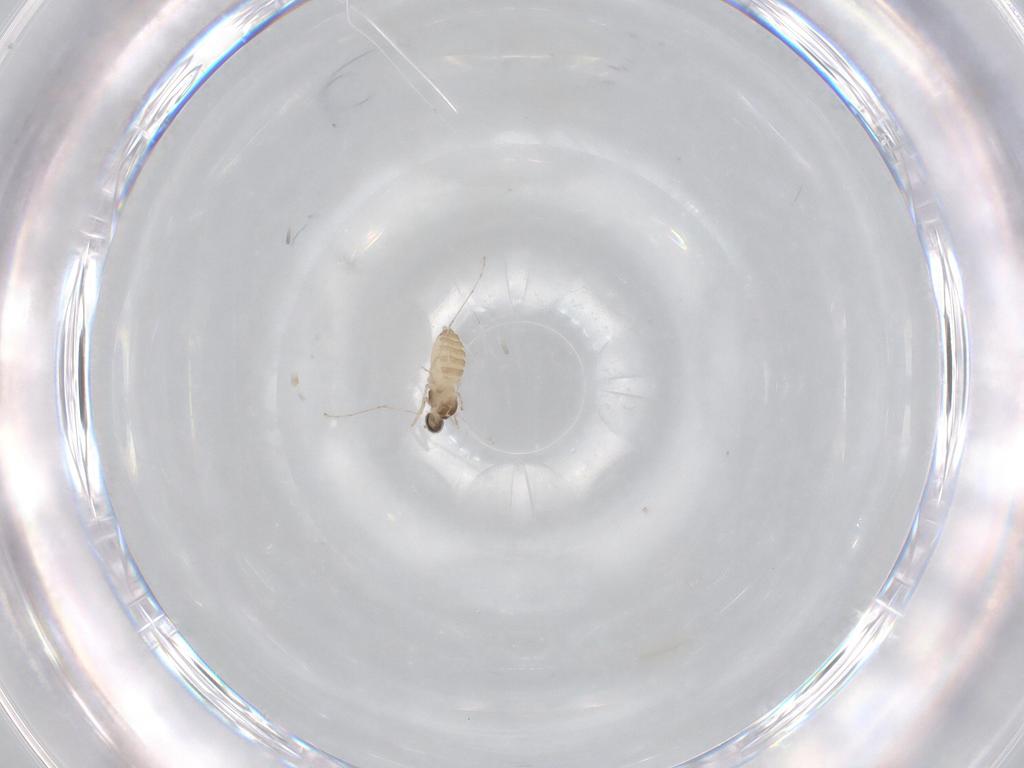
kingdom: Animalia
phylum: Arthropoda
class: Insecta
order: Diptera
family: Cecidomyiidae
